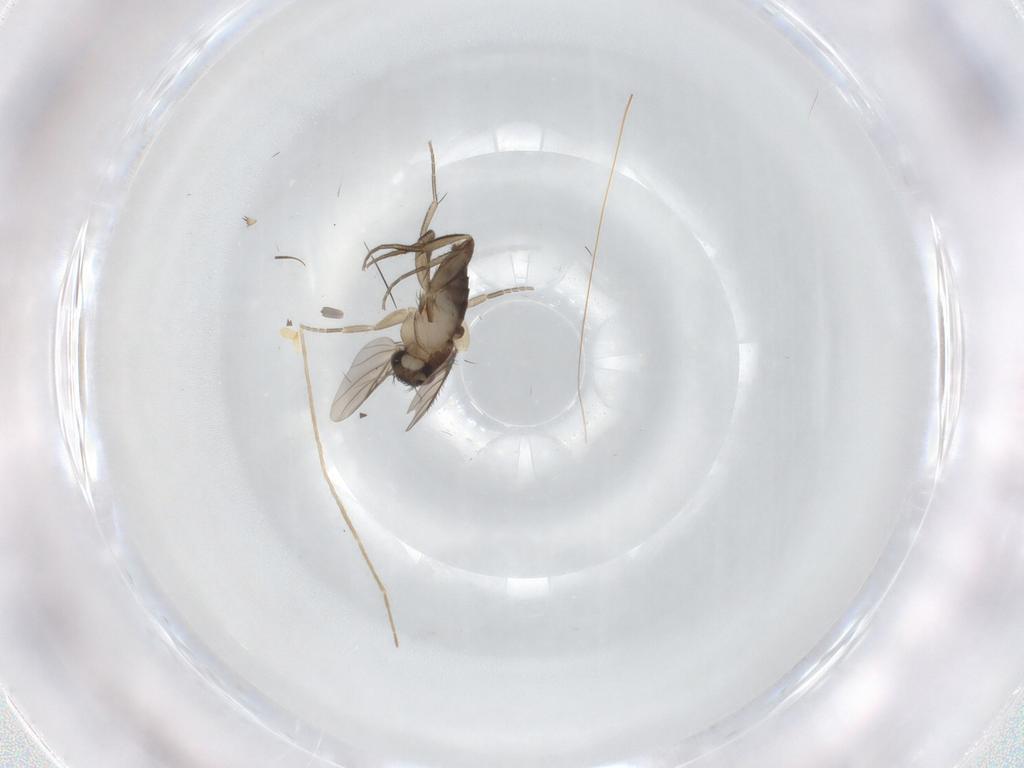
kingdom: Animalia
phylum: Arthropoda
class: Insecta
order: Diptera
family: Phoridae
